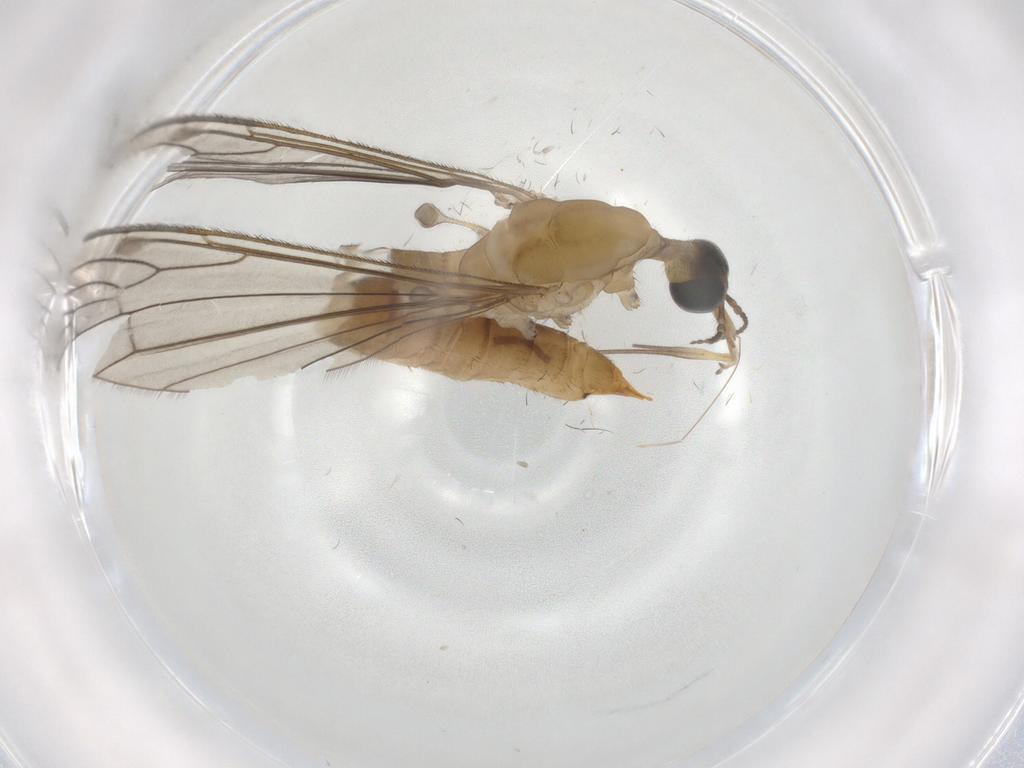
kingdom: Animalia
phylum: Arthropoda
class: Insecta
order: Diptera
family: Limoniidae
